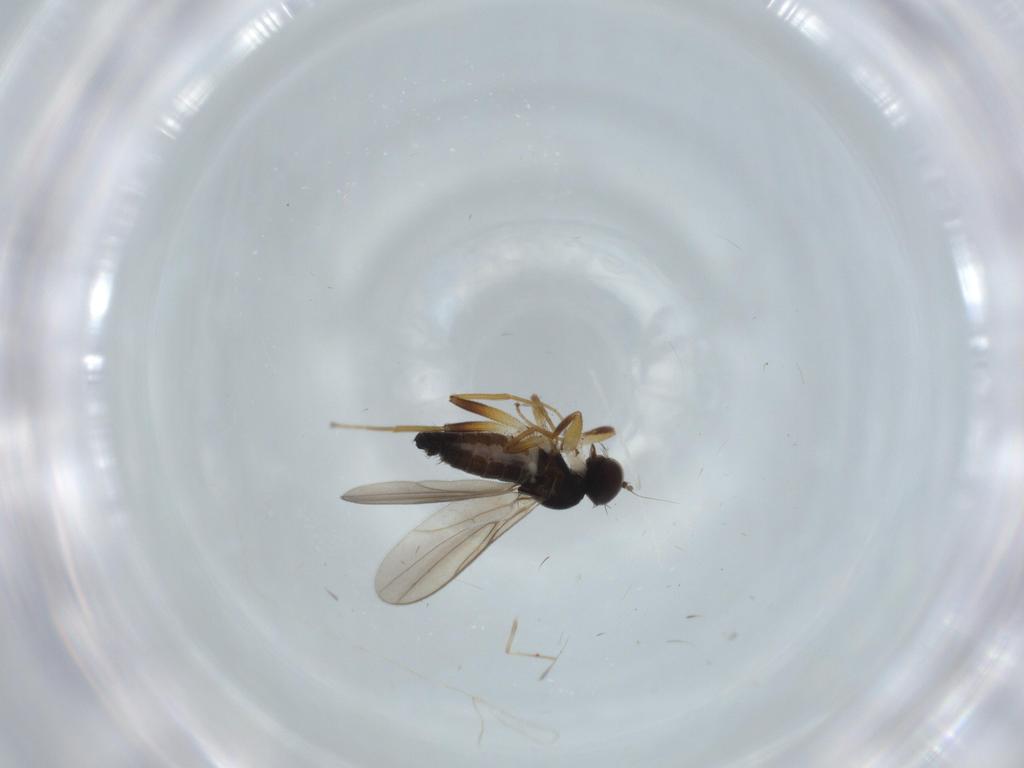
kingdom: Animalia
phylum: Arthropoda
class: Insecta
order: Diptera
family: Hybotidae
